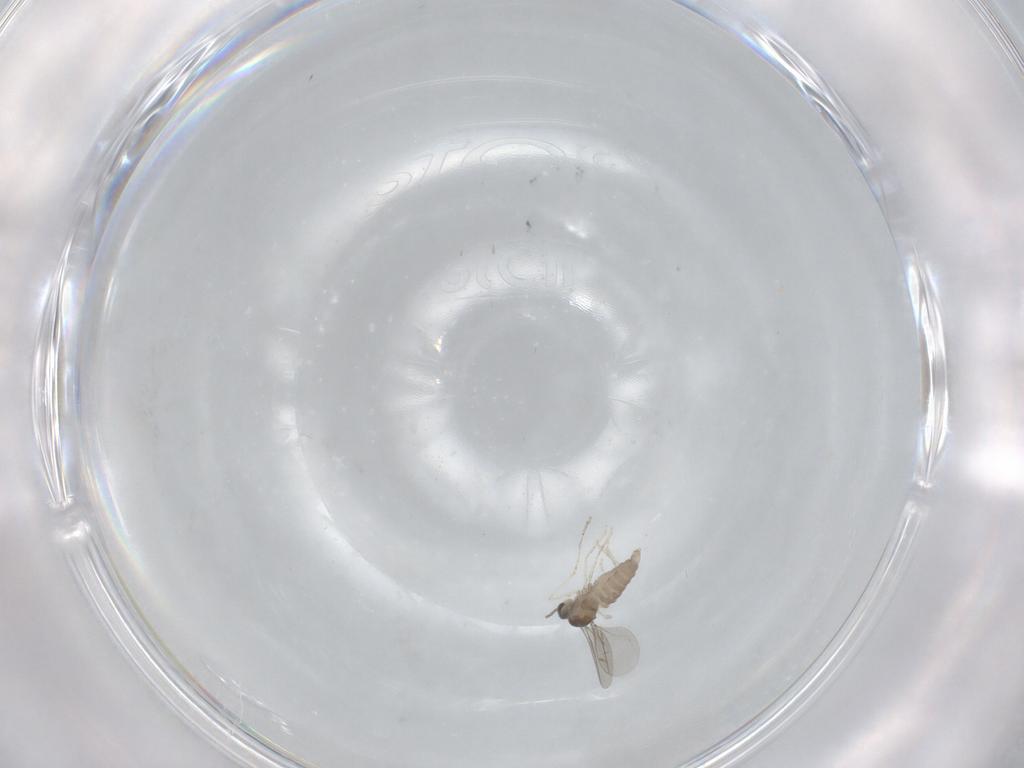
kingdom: Animalia
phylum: Arthropoda
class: Insecta
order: Diptera
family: Cecidomyiidae
